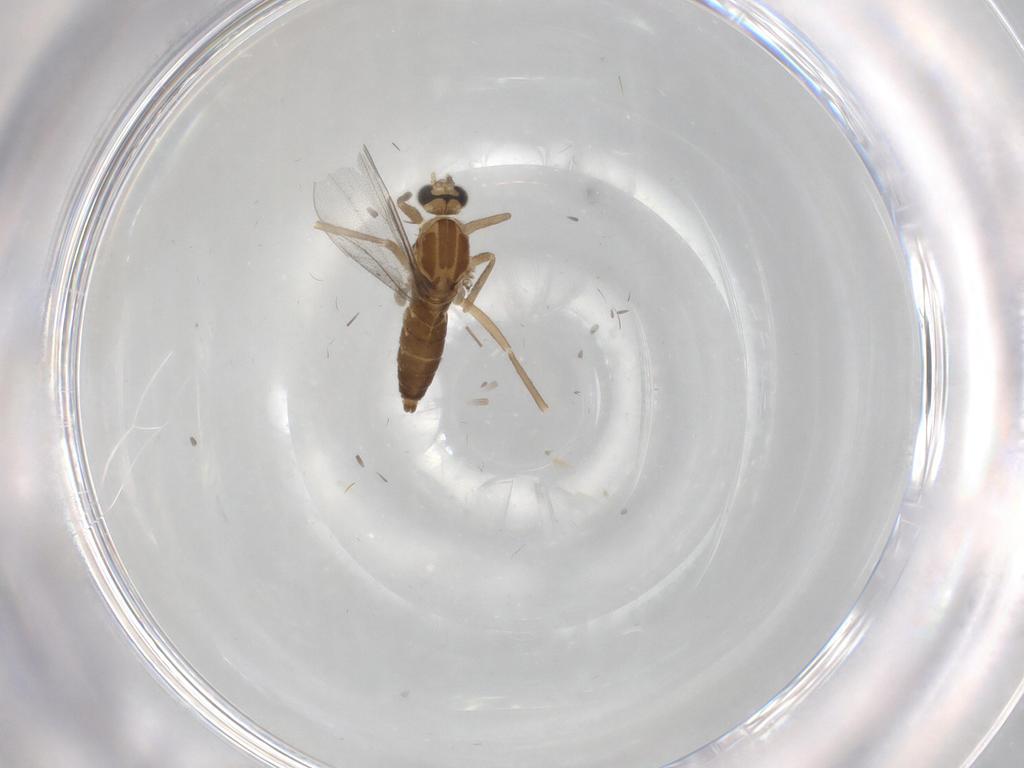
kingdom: Animalia
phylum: Arthropoda
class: Insecta
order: Diptera
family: Cecidomyiidae
